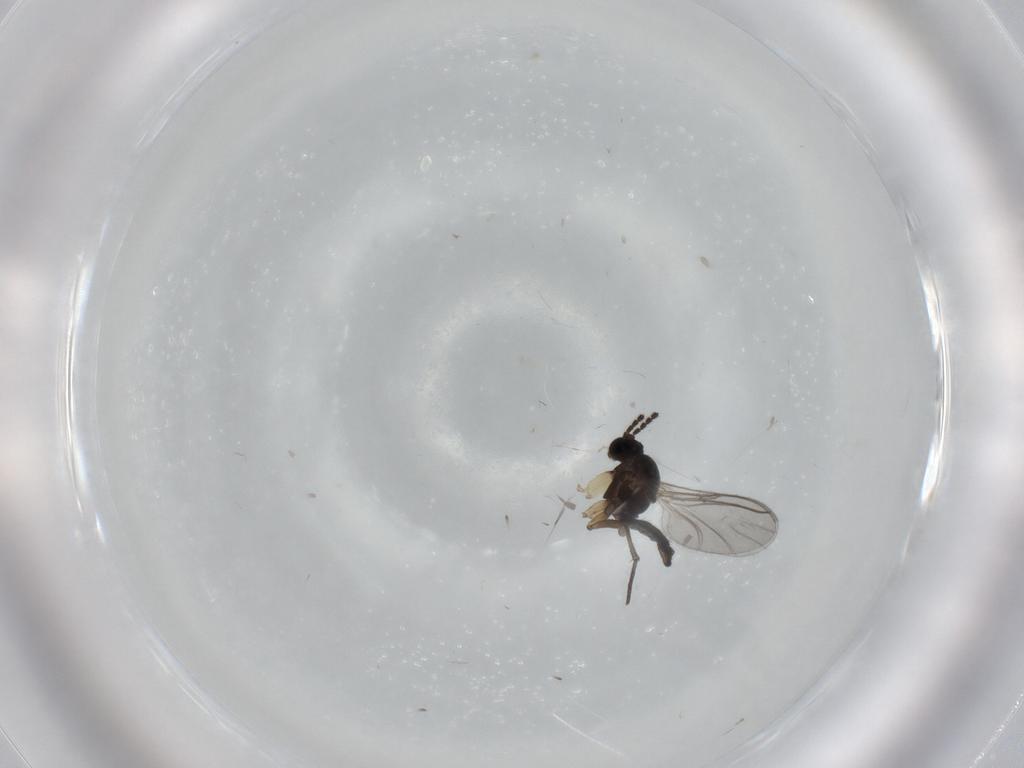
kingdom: Animalia
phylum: Arthropoda
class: Insecta
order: Diptera
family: Sciaridae
